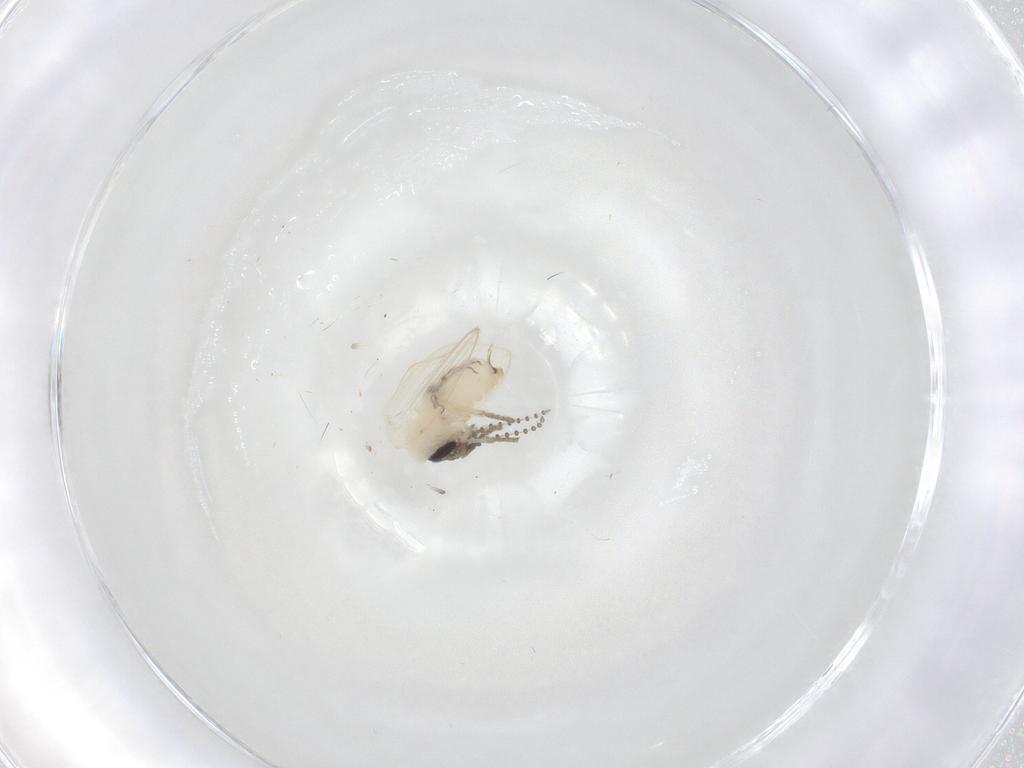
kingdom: Animalia
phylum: Arthropoda
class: Insecta
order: Diptera
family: Psychodidae
